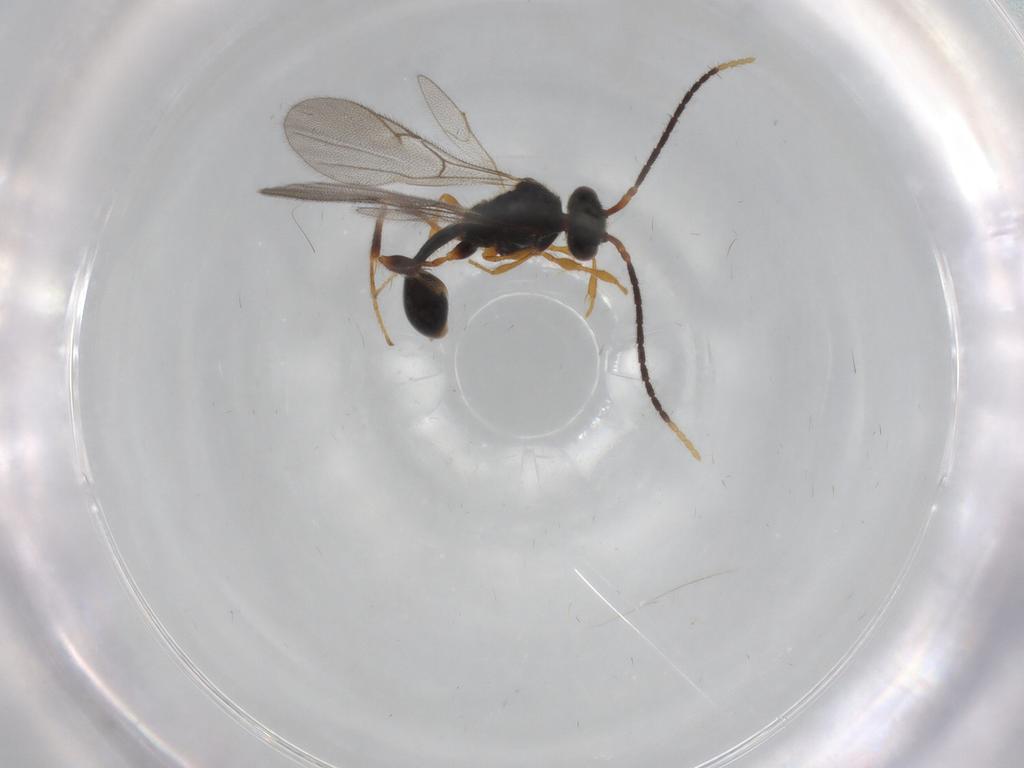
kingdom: Animalia
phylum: Arthropoda
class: Insecta
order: Hymenoptera
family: Diapriidae
